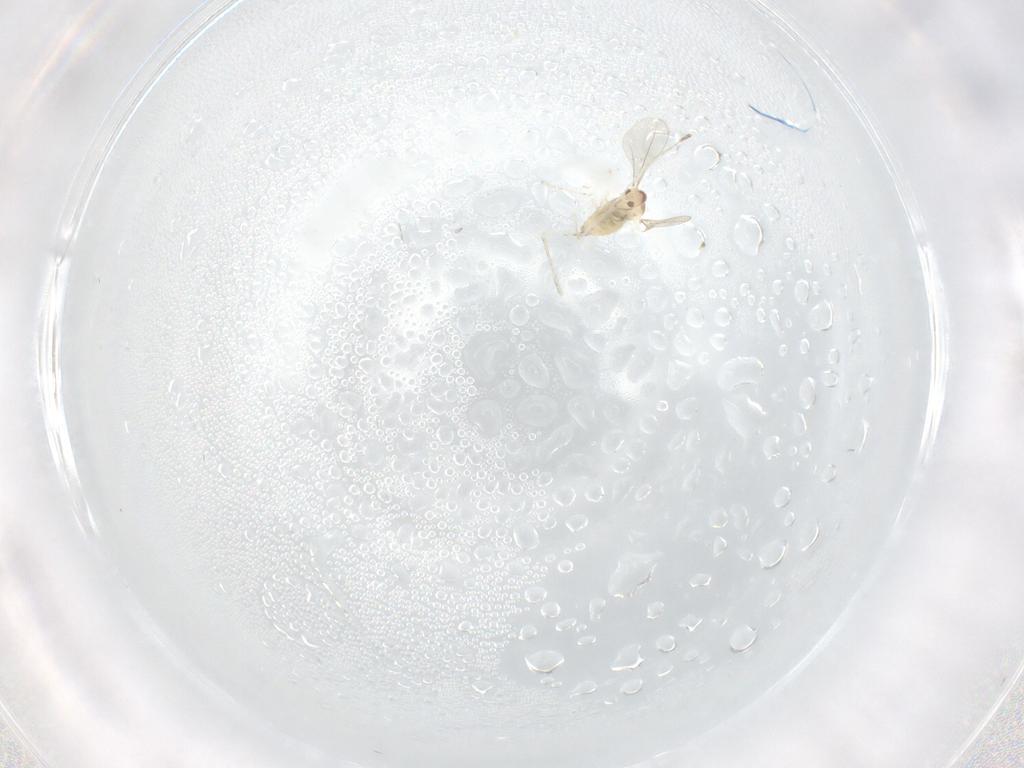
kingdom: Animalia
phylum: Arthropoda
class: Insecta
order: Diptera
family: Cecidomyiidae
